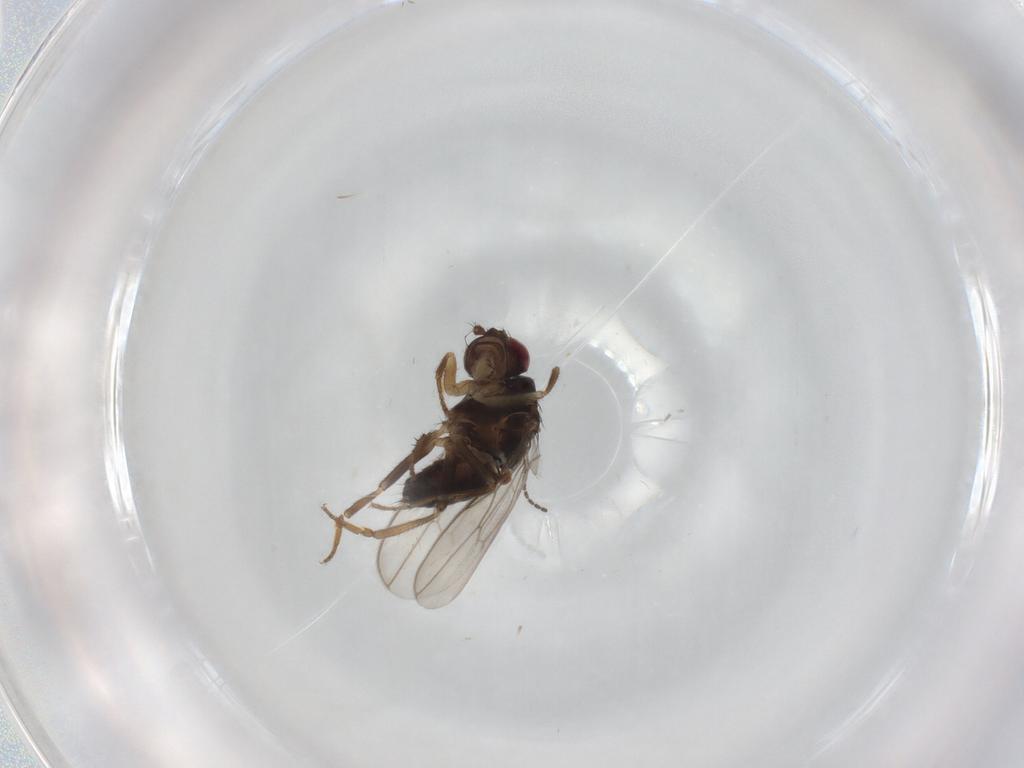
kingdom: Animalia
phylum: Arthropoda
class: Insecta
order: Diptera
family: Sphaeroceridae
